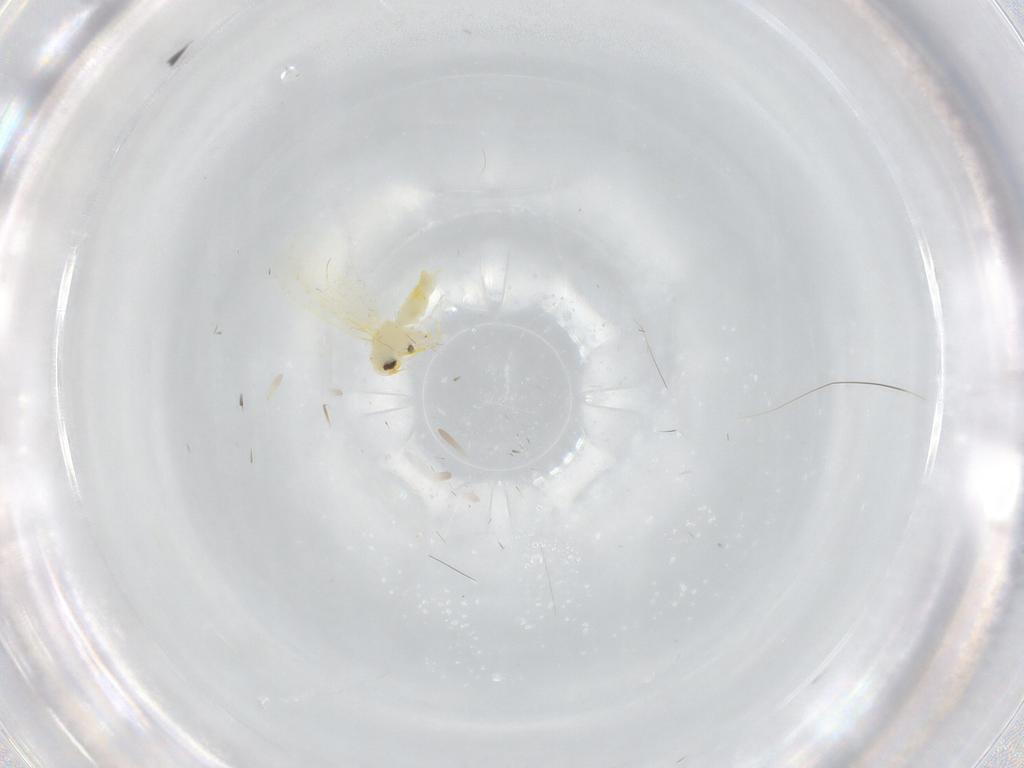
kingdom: Animalia
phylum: Arthropoda
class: Insecta
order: Hemiptera
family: Aleyrodidae
